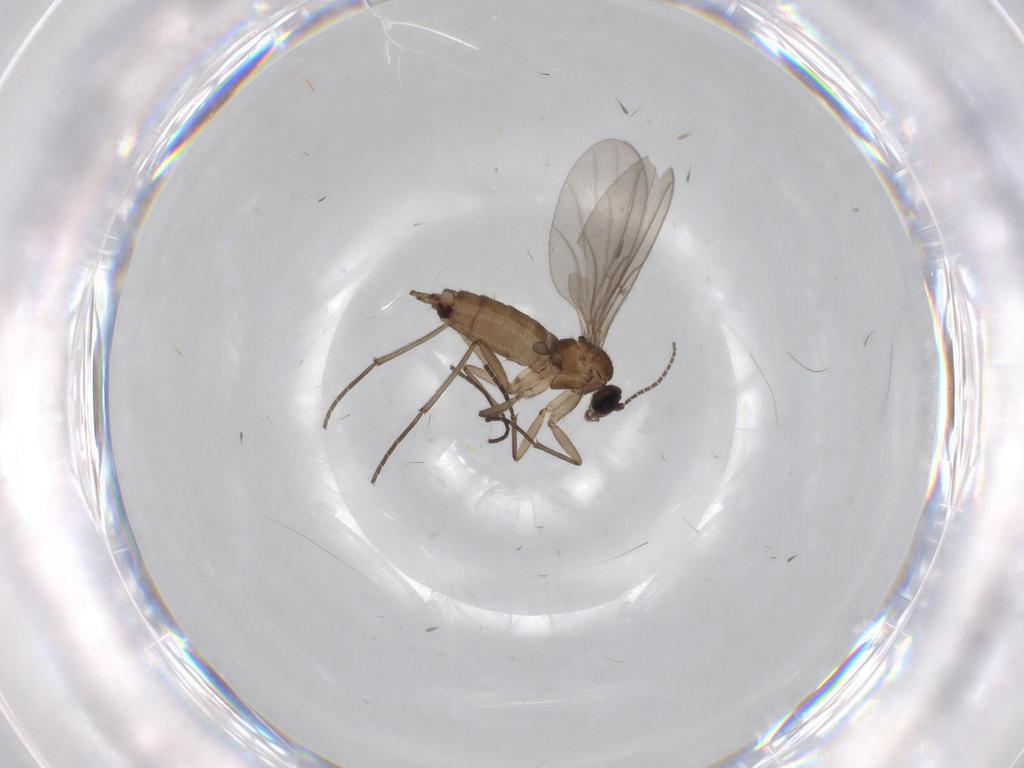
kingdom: Animalia
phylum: Arthropoda
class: Insecta
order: Diptera
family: Sciaridae
